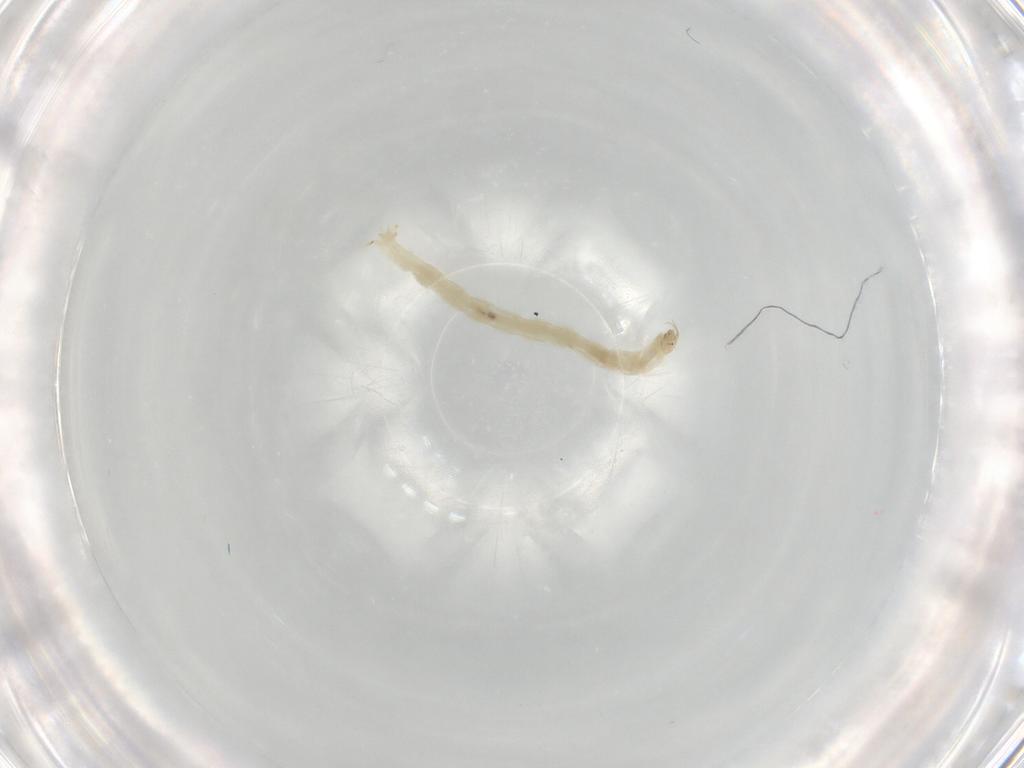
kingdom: Animalia
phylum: Arthropoda
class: Insecta
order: Diptera
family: Chironomidae
